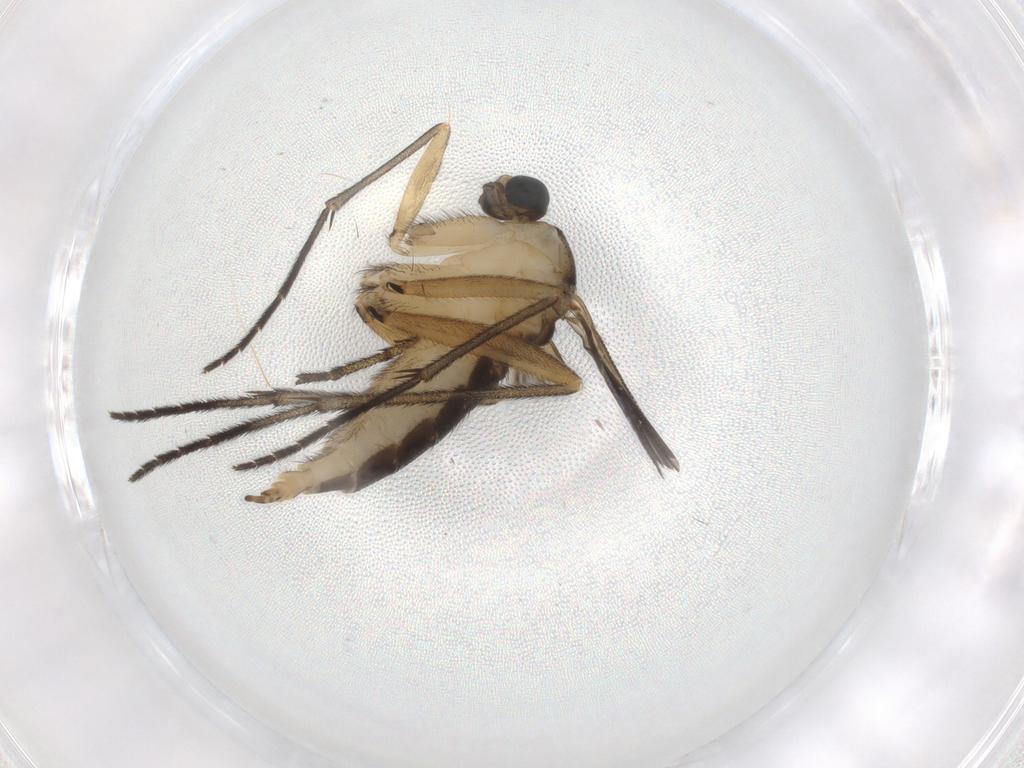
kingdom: Animalia
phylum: Arthropoda
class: Insecta
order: Diptera
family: Sciaridae
